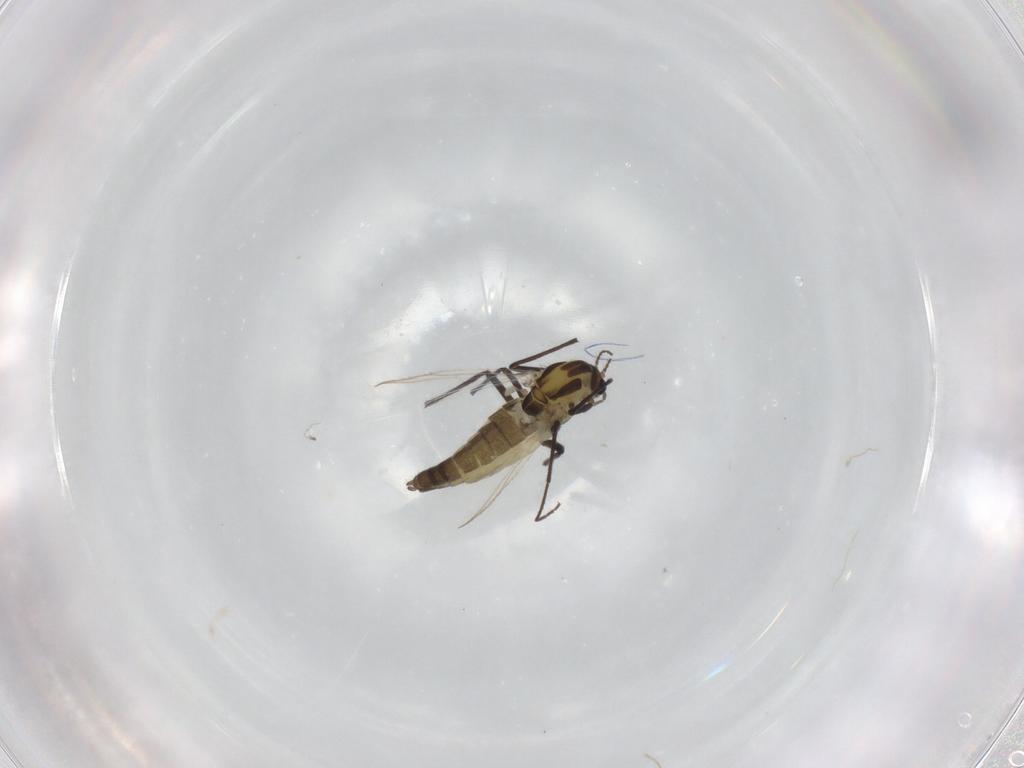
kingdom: Animalia
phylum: Arthropoda
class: Insecta
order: Diptera
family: Chironomidae
